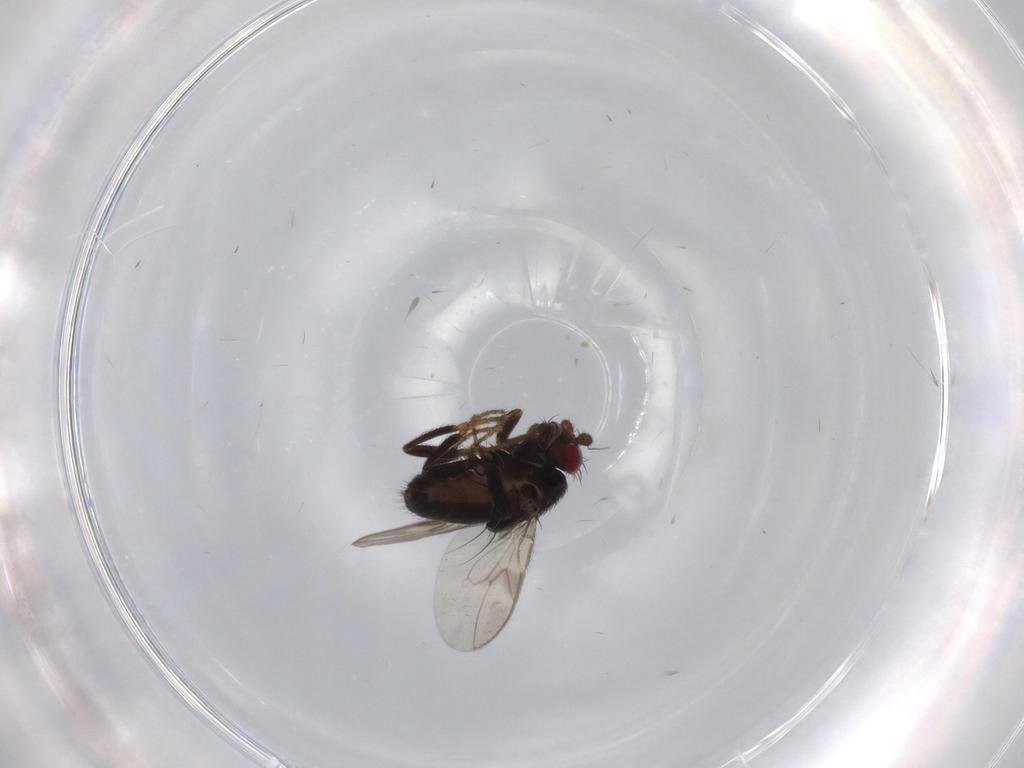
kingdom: Animalia
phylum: Arthropoda
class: Insecta
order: Diptera
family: Sphaeroceridae
